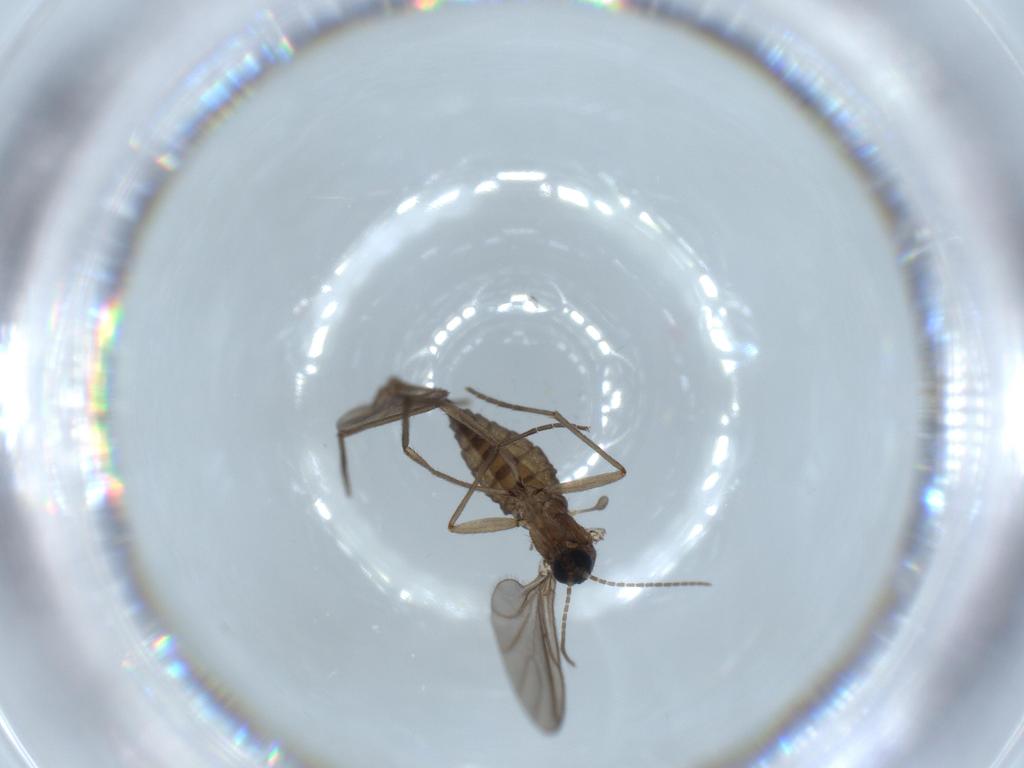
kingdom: Animalia
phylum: Arthropoda
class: Insecta
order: Diptera
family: Sciaridae
